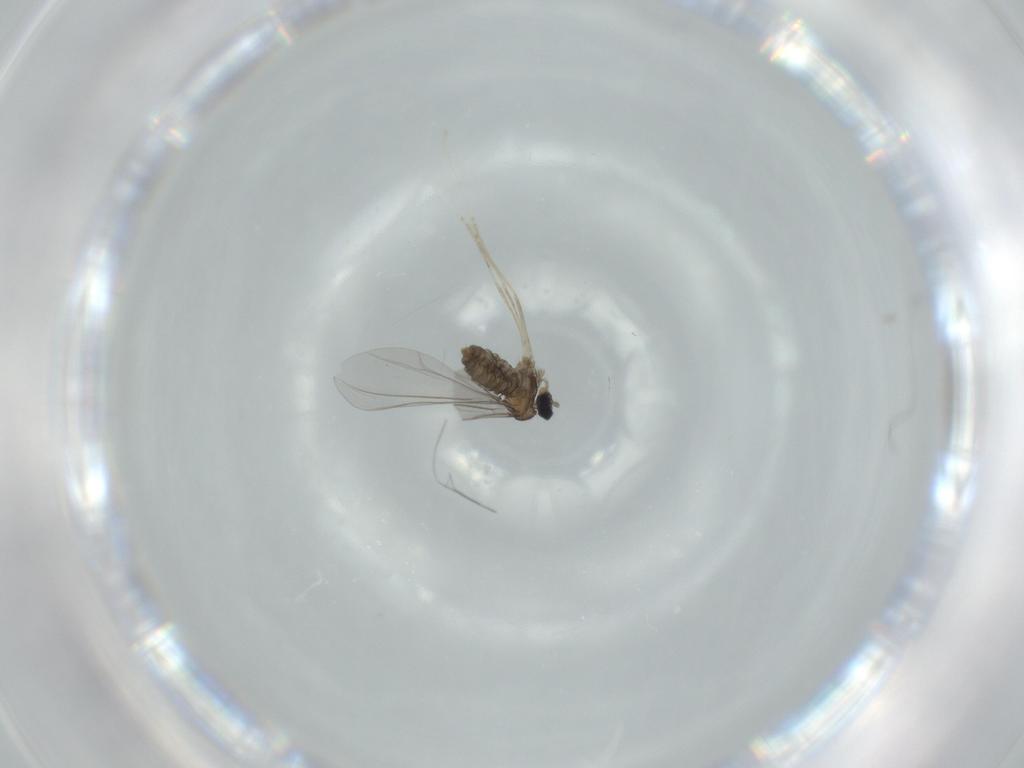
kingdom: Animalia
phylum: Arthropoda
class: Insecta
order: Diptera
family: Cecidomyiidae
